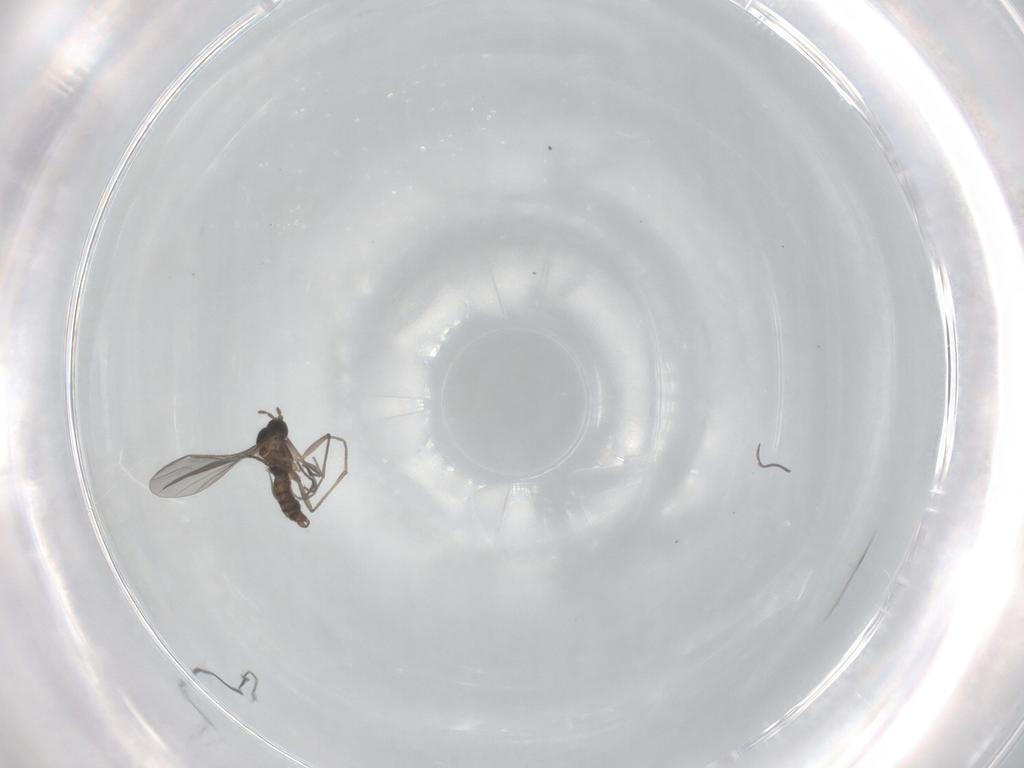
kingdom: Animalia
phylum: Arthropoda
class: Insecta
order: Diptera
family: Sciaridae
